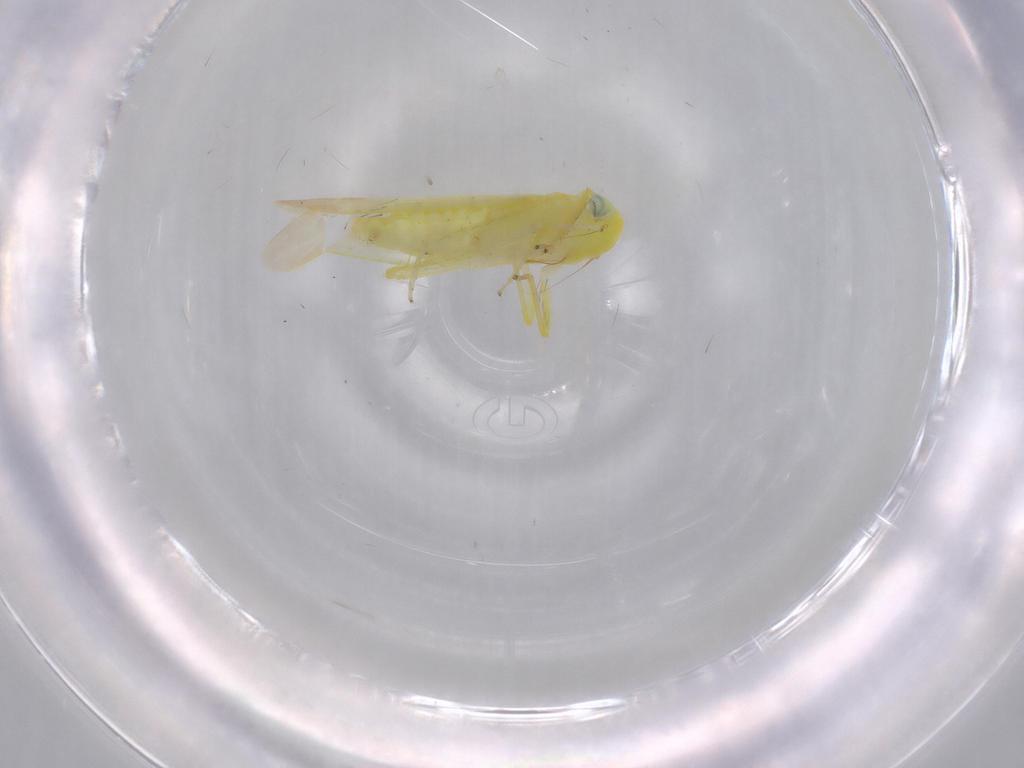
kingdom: Animalia
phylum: Arthropoda
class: Insecta
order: Hemiptera
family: Cicadellidae
